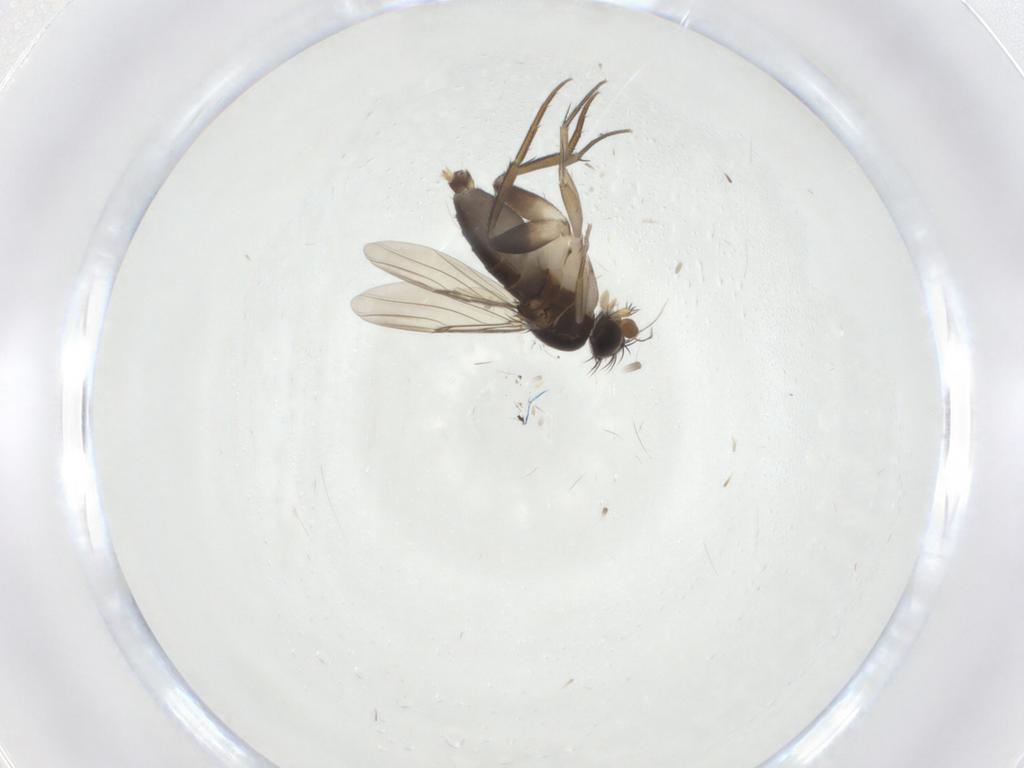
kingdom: Animalia
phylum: Arthropoda
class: Insecta
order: Diptera
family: Phoridae
